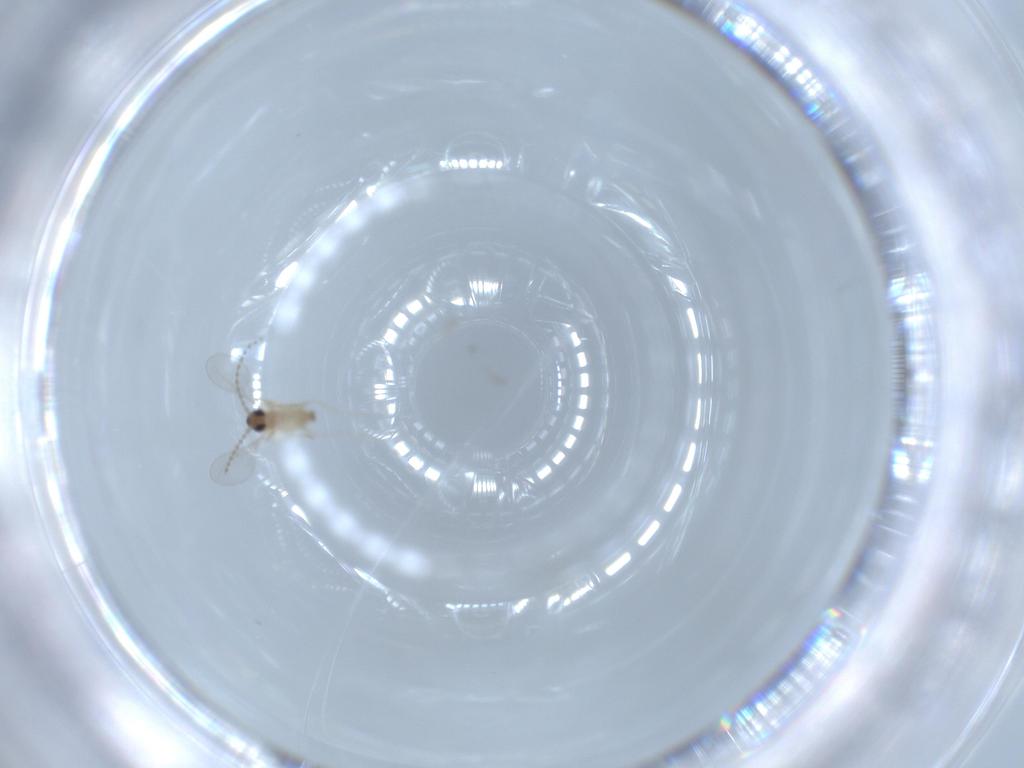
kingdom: Animalia
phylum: Arthropoda
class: Insecta
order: Diptera
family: Cecidomyiidae
